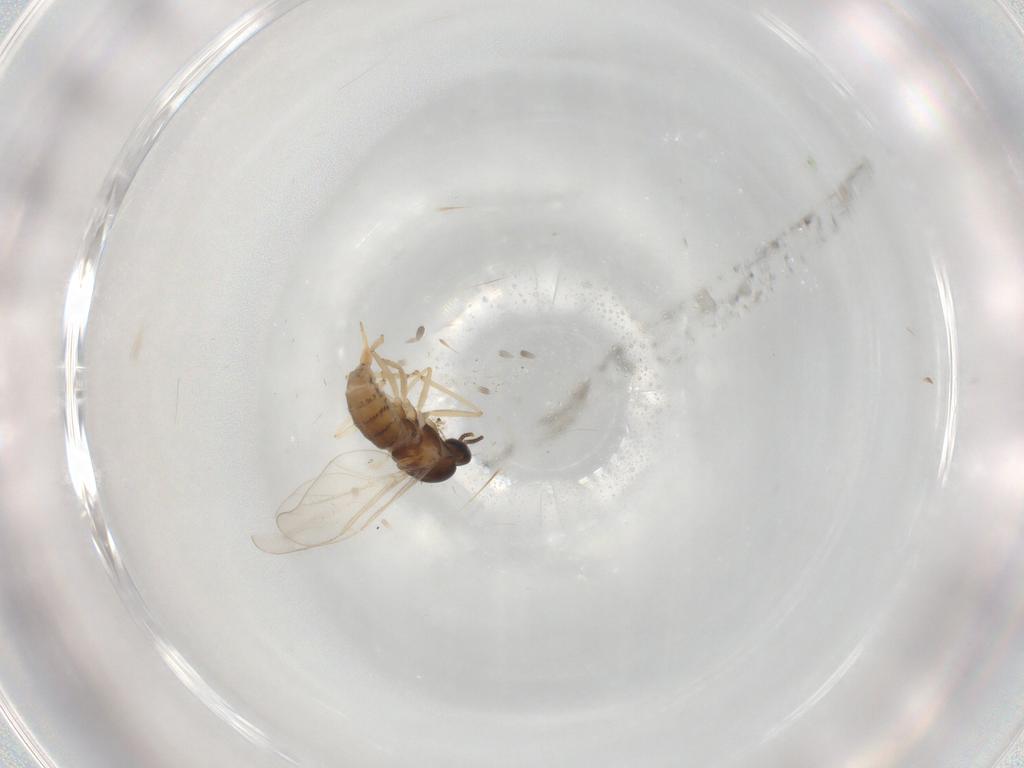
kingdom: Animalia
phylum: Arthropoda
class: Insecta
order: Diptera
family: Cecidomyiidae
